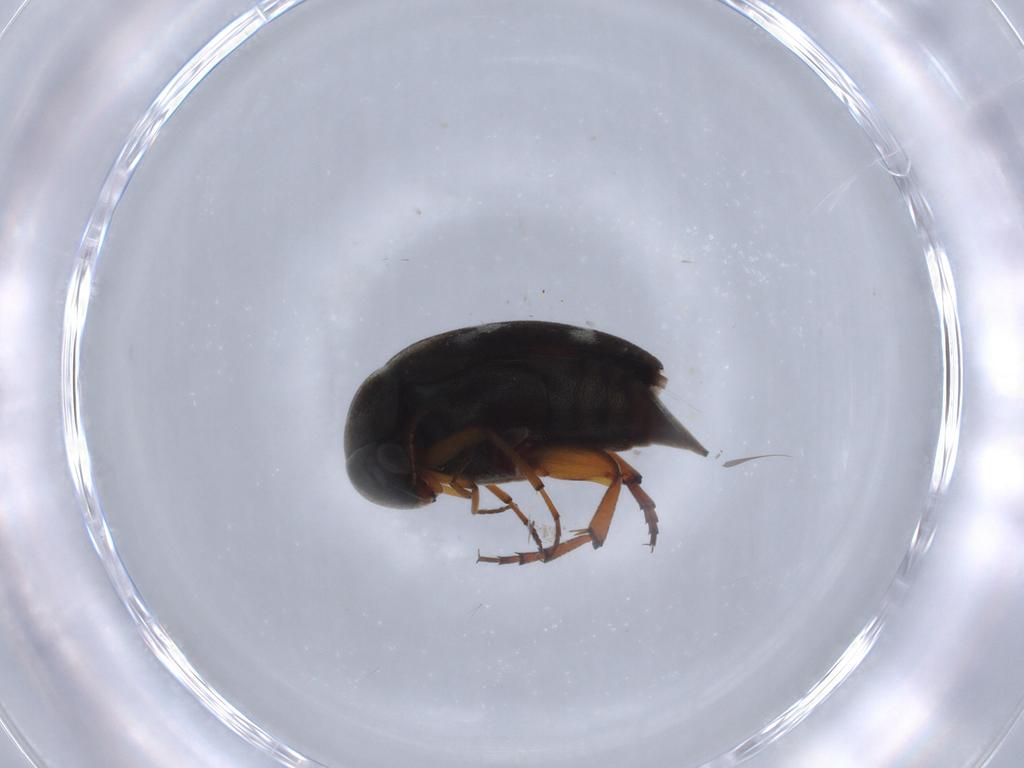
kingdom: Animalia
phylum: Arthropoda
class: Insecta
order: Coleoptera
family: Mordellidae
